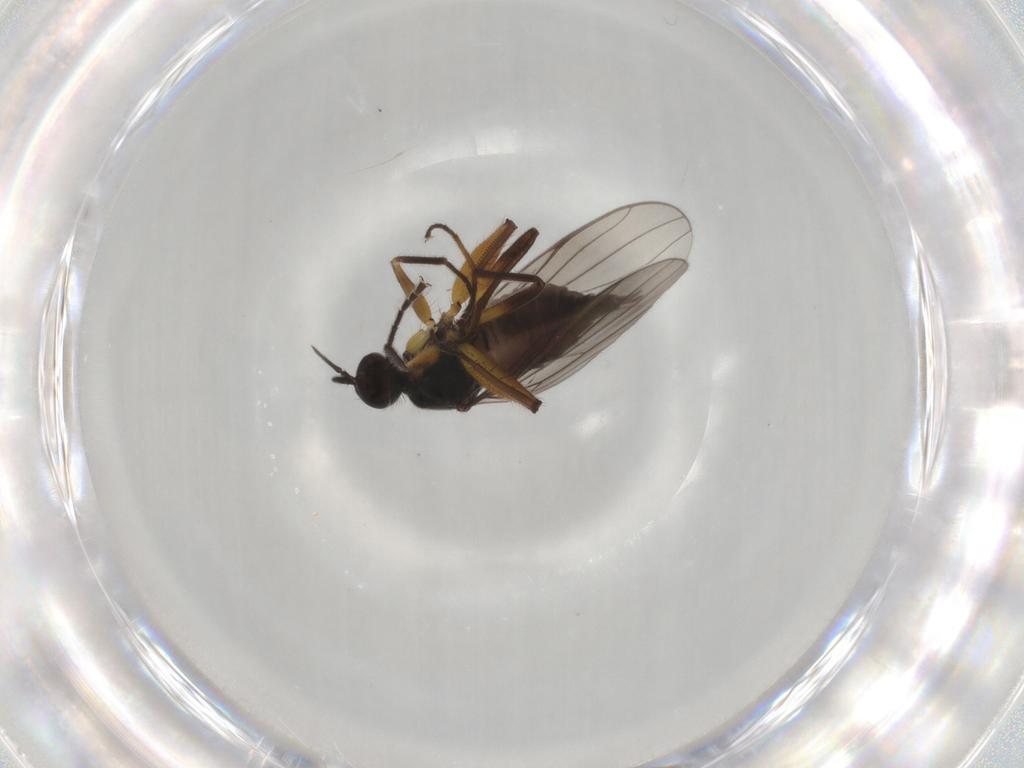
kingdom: Animalia
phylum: Arthropoda
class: Insecta
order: Diptera
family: Hybotidae
